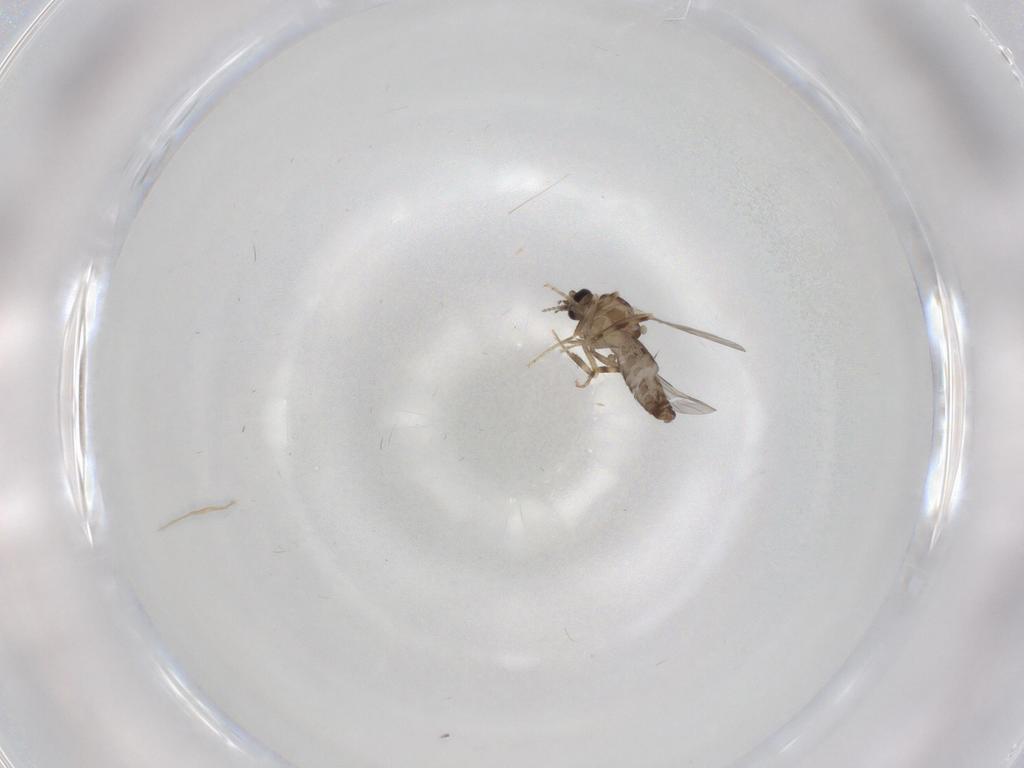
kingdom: Animalia
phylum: Arthropoda
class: Insecta
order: Diptera
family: Ceratopogonidae
